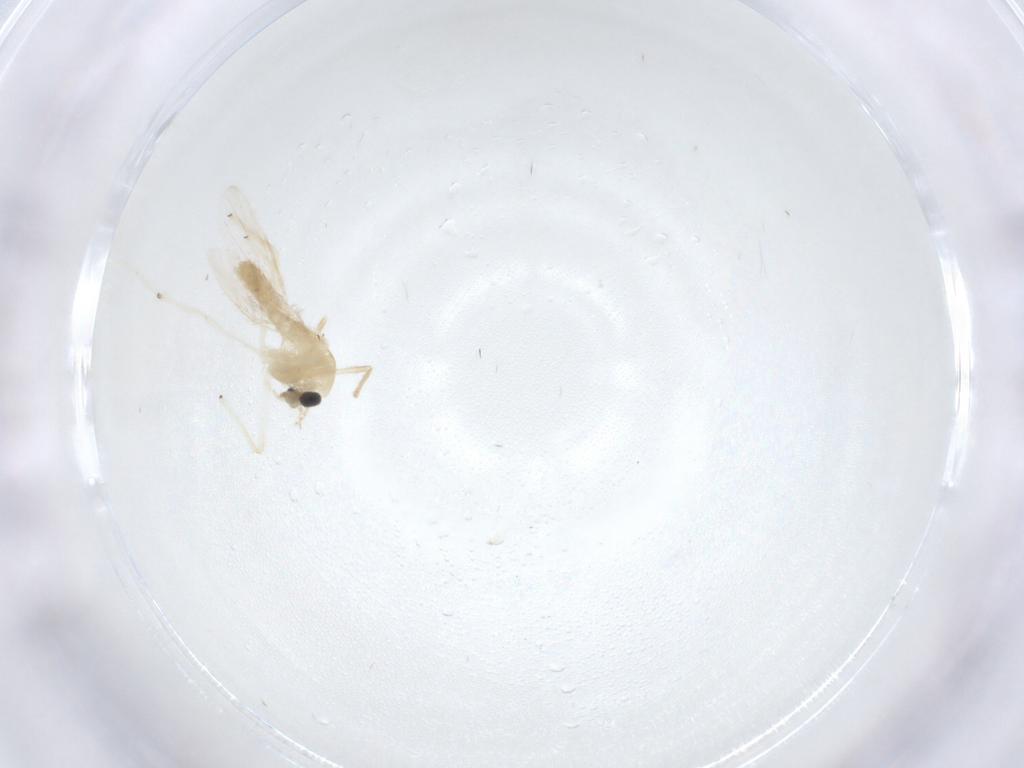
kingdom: Animalia
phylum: Arthropoda
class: Insecta
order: Diptera
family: Chironomidae
